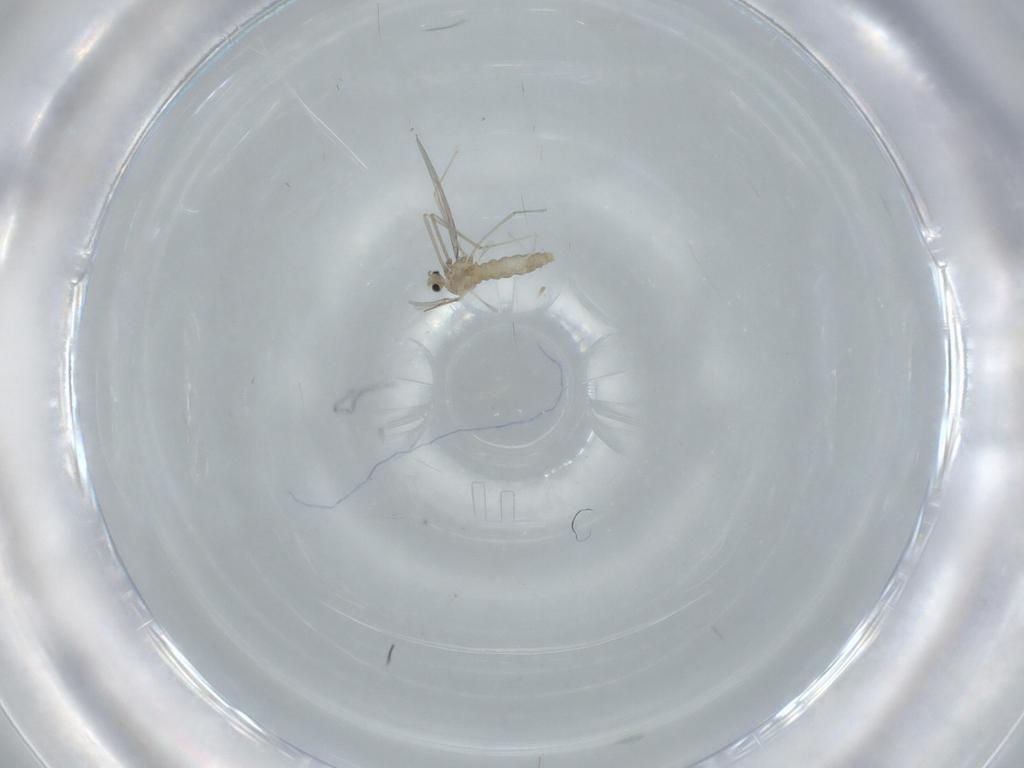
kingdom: Animalia
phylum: Arthropoda
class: Insecta
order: Diptera
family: Cecidomyiidae
